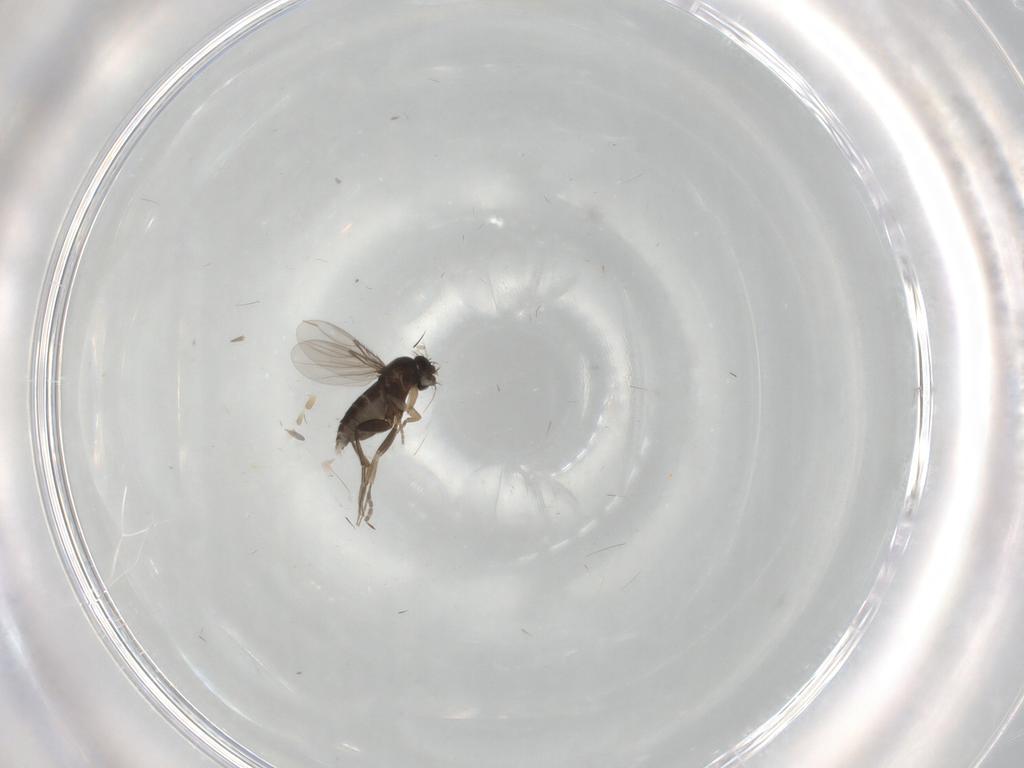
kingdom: Animalia
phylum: Arthropoda
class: Insecta
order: Diptera
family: Phoridae
